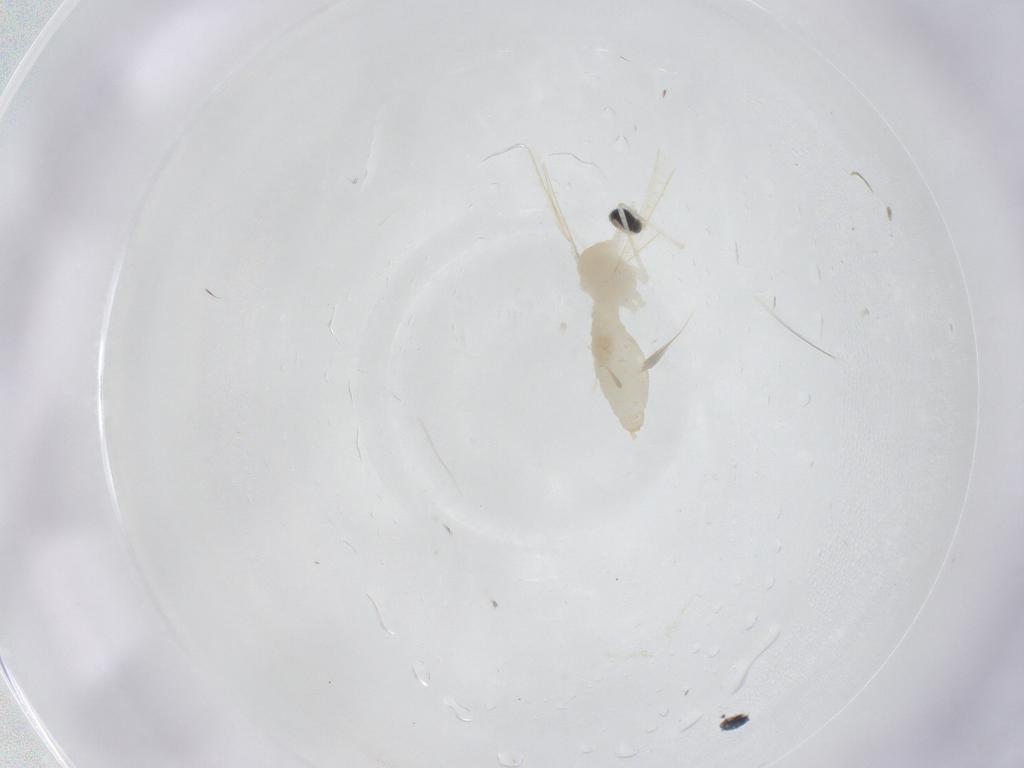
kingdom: Animalia
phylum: Arthropoda
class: Insecta
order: Diptera
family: Cecidomyiidae
